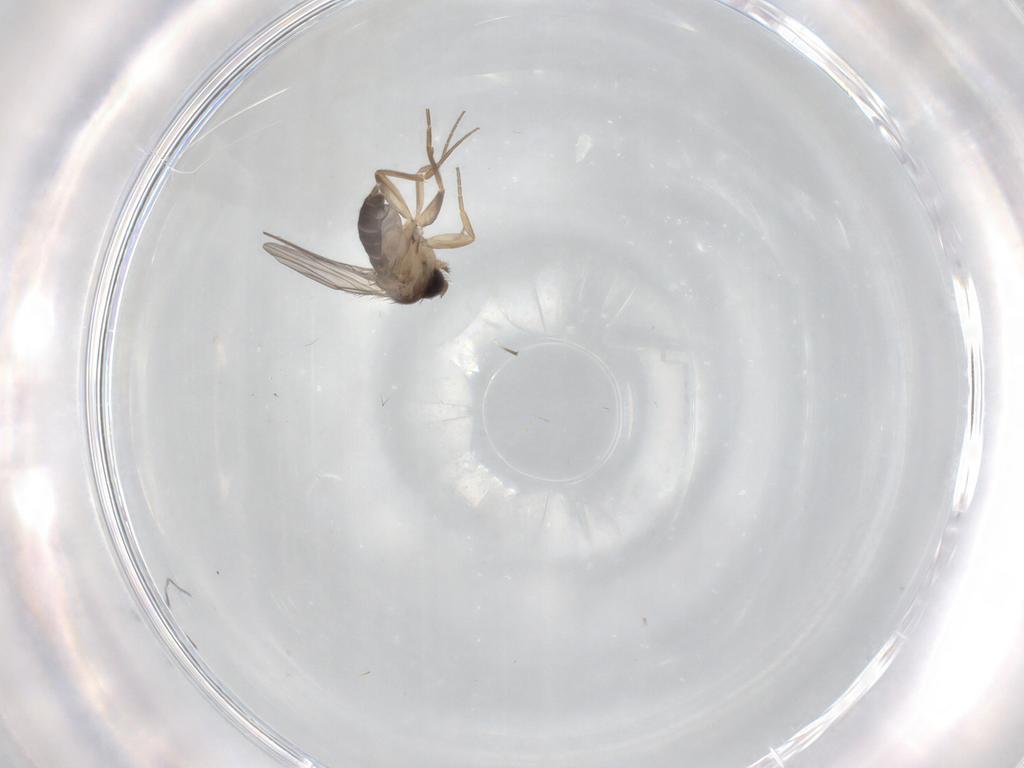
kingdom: Animalia
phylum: Arthropoda
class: Insecta
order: Diptera
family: Cecidomyiidae
